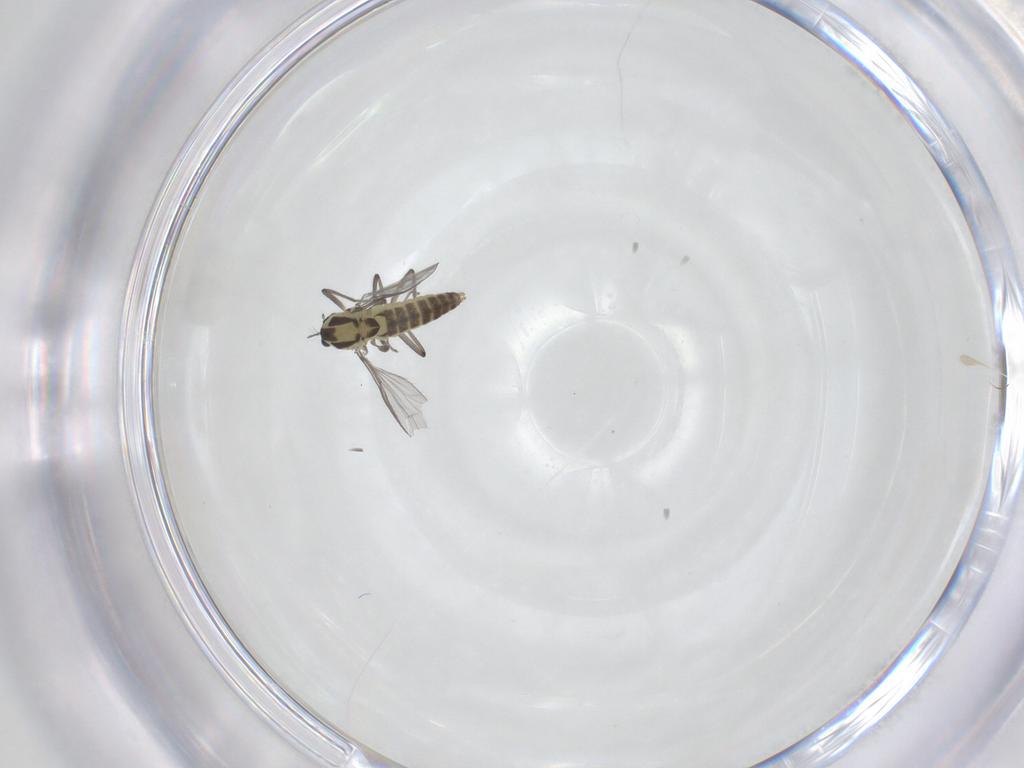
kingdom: Animalia
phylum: Arthropoda
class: Insecta
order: Diptera
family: Chironomidae
